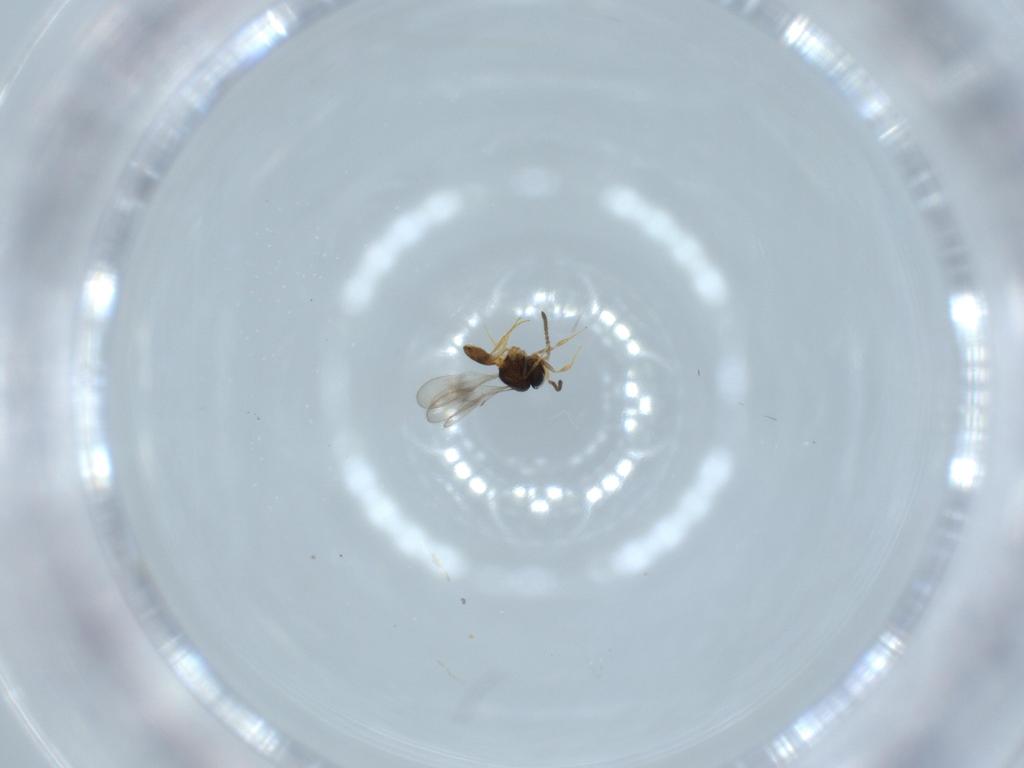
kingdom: Animalia
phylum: Arthropoda
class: Insecta
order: Hymenoptera
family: Scelionidae
